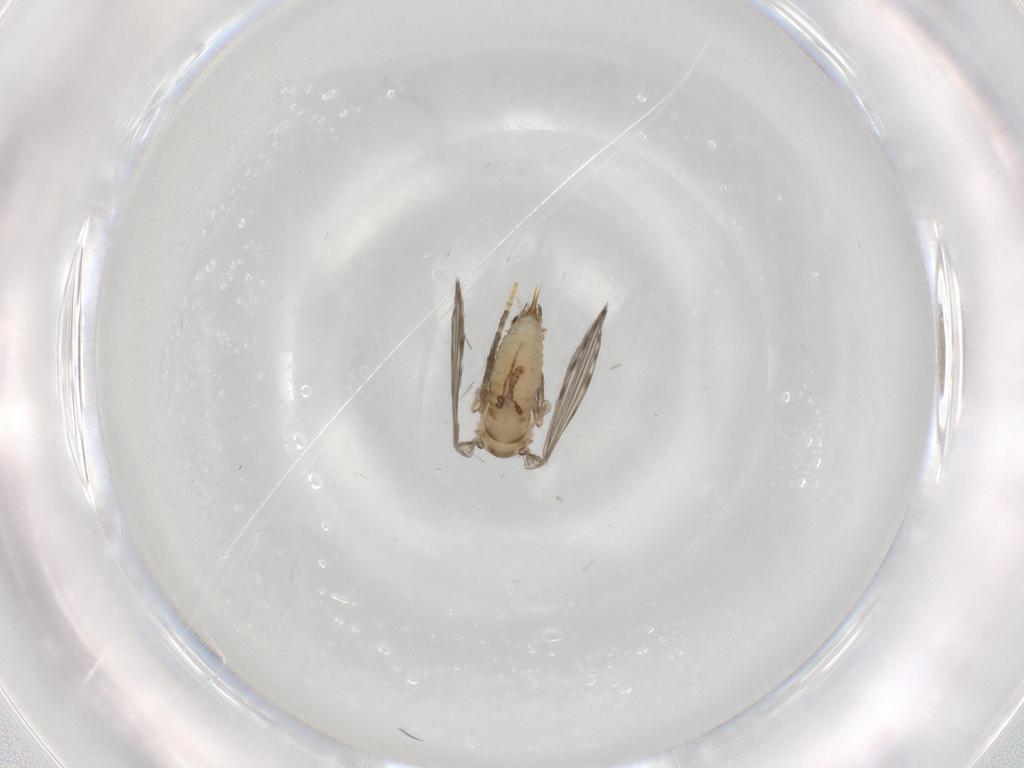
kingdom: Animalia
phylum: Arthropoda
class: Insecta
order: Diptera
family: Psychodidae
